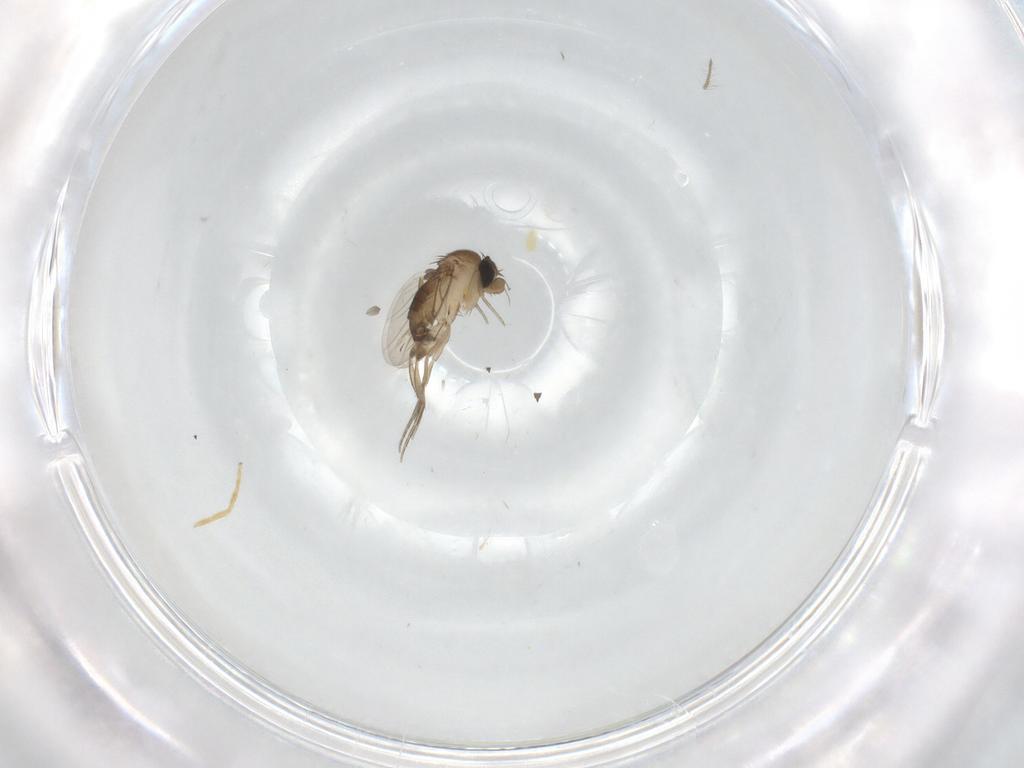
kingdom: Animalia
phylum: Arthropoda
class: Insecta
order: Diptera
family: Phoridae
